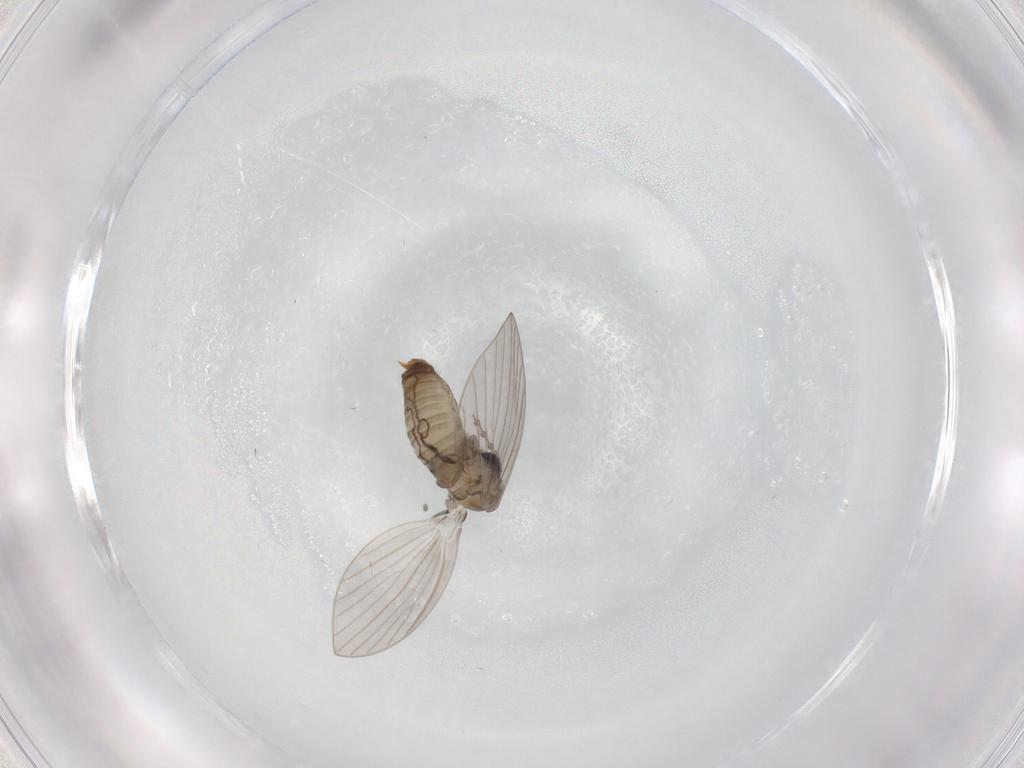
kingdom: Animalia
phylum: Arthropoda
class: Insecta
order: Diptera
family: Psychodidae
